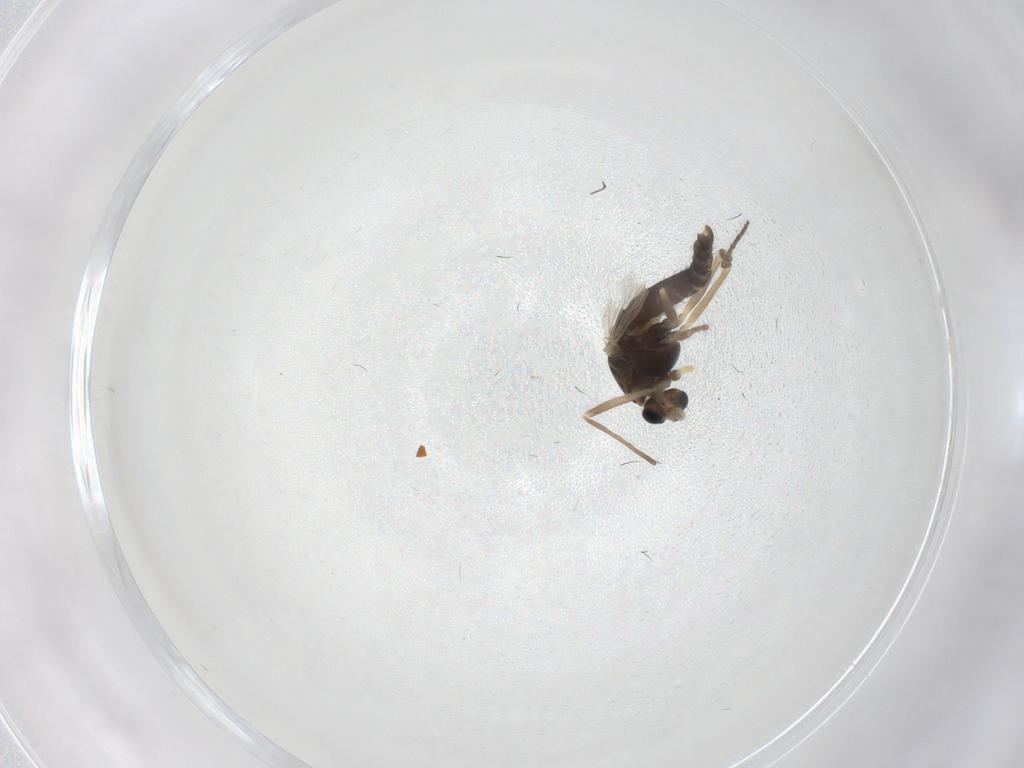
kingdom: Animalia
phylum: Arthropoda
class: Insecta
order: Diptera
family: Chironomidae
